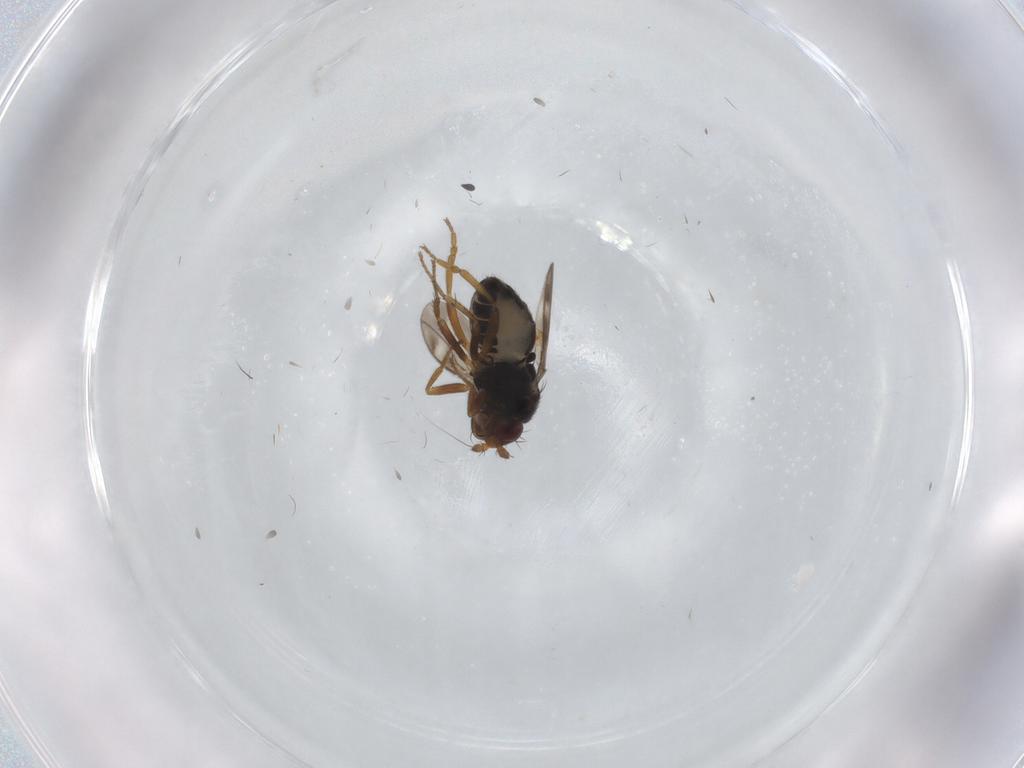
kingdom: Animalia
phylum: Arthropoda
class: Insecta
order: Diptera
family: Sphaeroceridae
